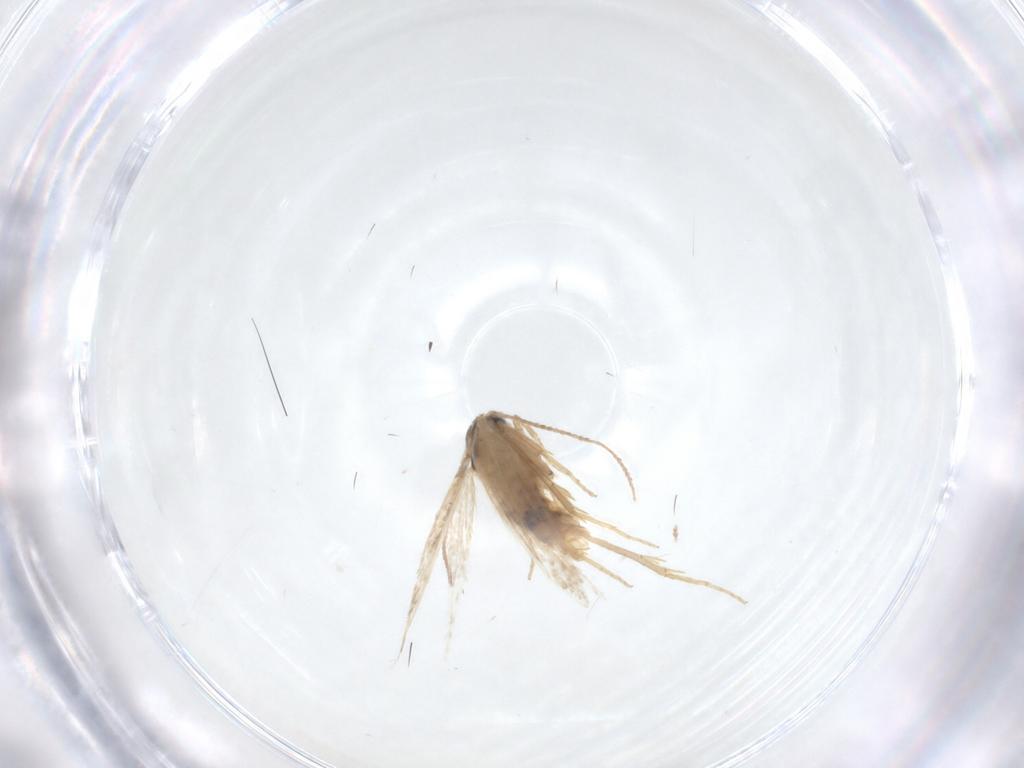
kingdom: Animalia
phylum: Arthropoda
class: Insecta
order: Lepidoptera
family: Nepticulidae
